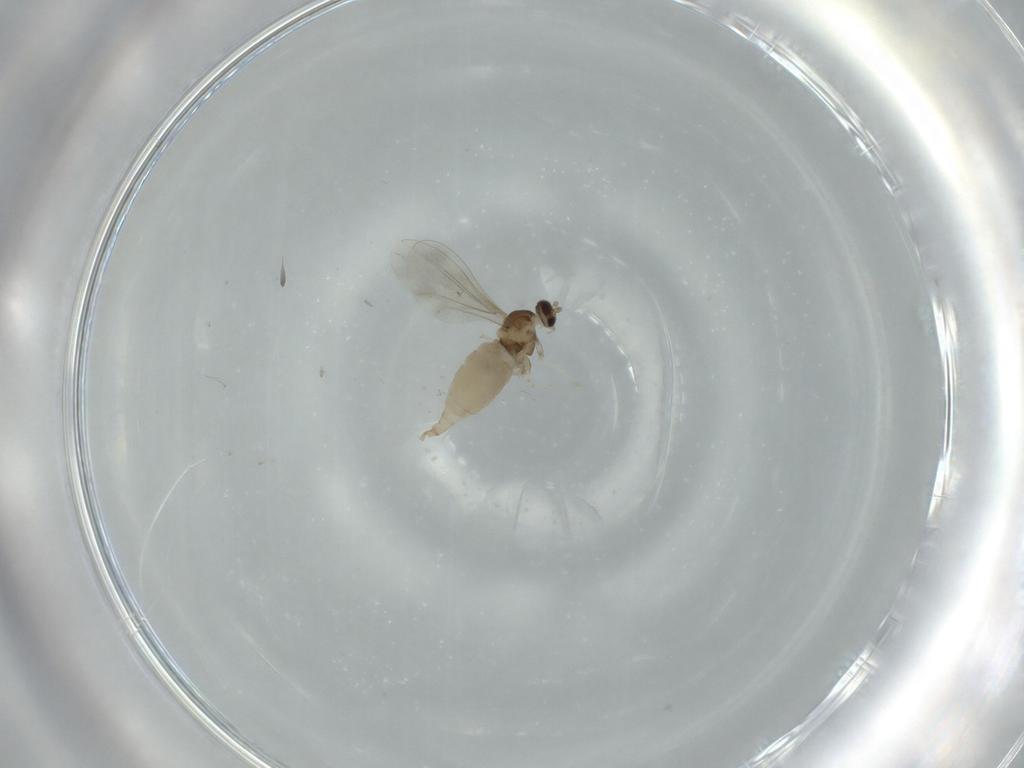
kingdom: Animalia
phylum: Arthropoda
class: Insecta
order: Diptera
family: Cecidomyiidae
